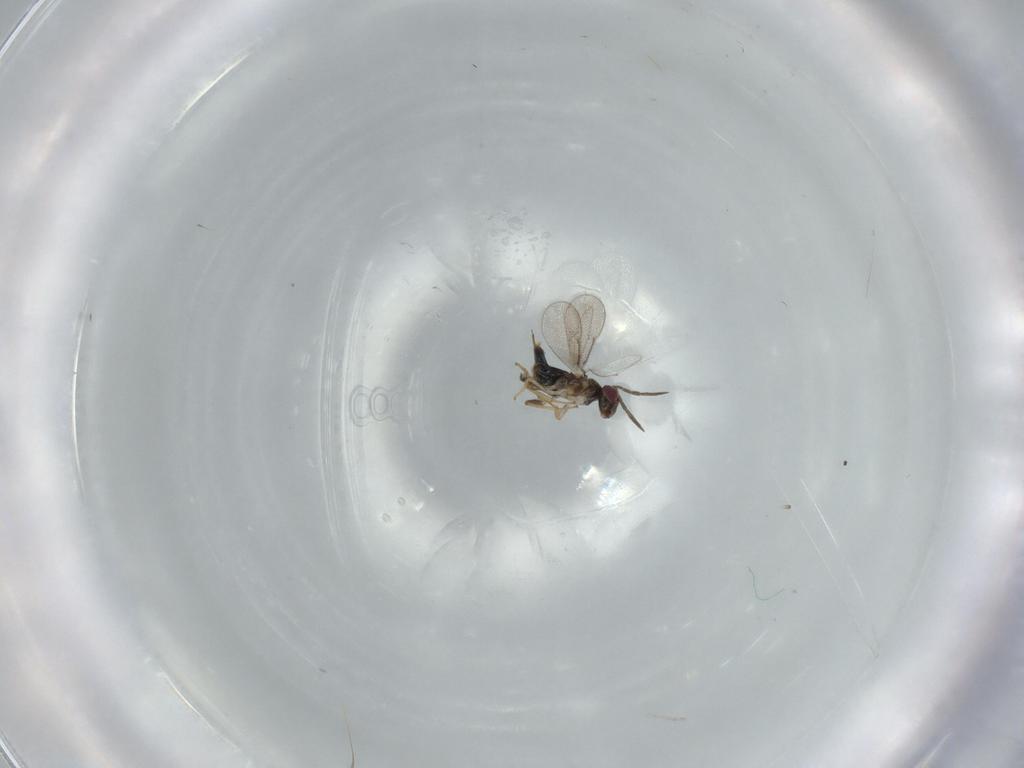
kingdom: Animalia
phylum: Arthropoda
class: Insecta
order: Hymenoptera
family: Aphelinidae
